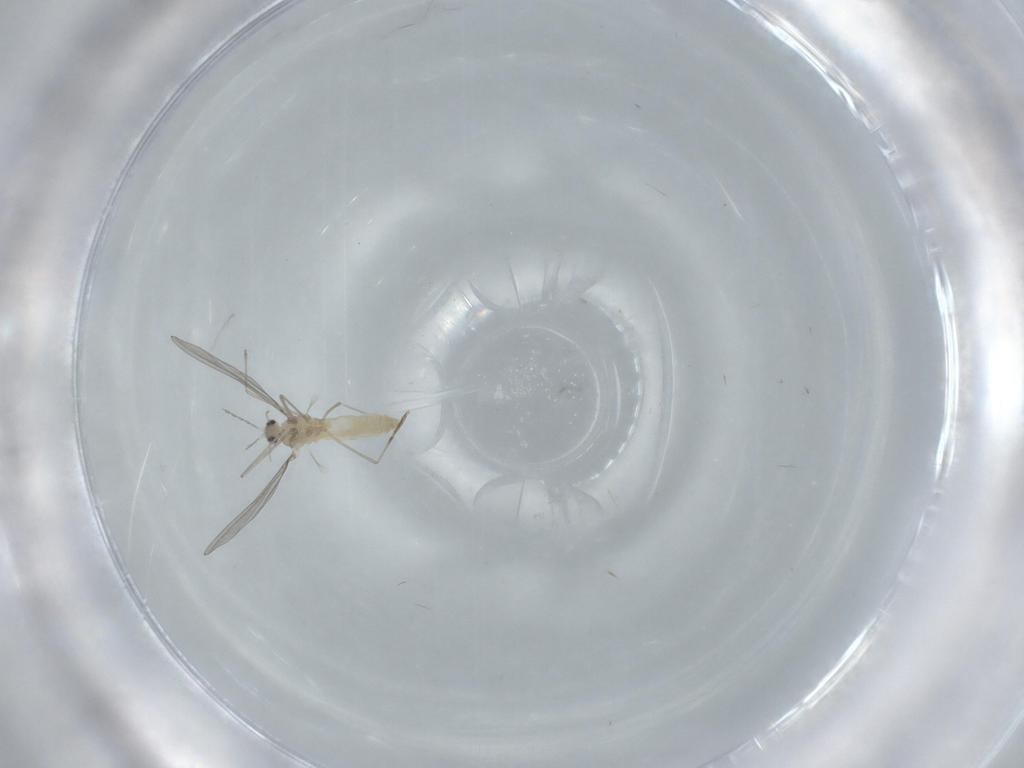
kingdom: Animalia
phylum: Arthropoda
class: Insecta
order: Diptera
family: Cecidomyiidae
